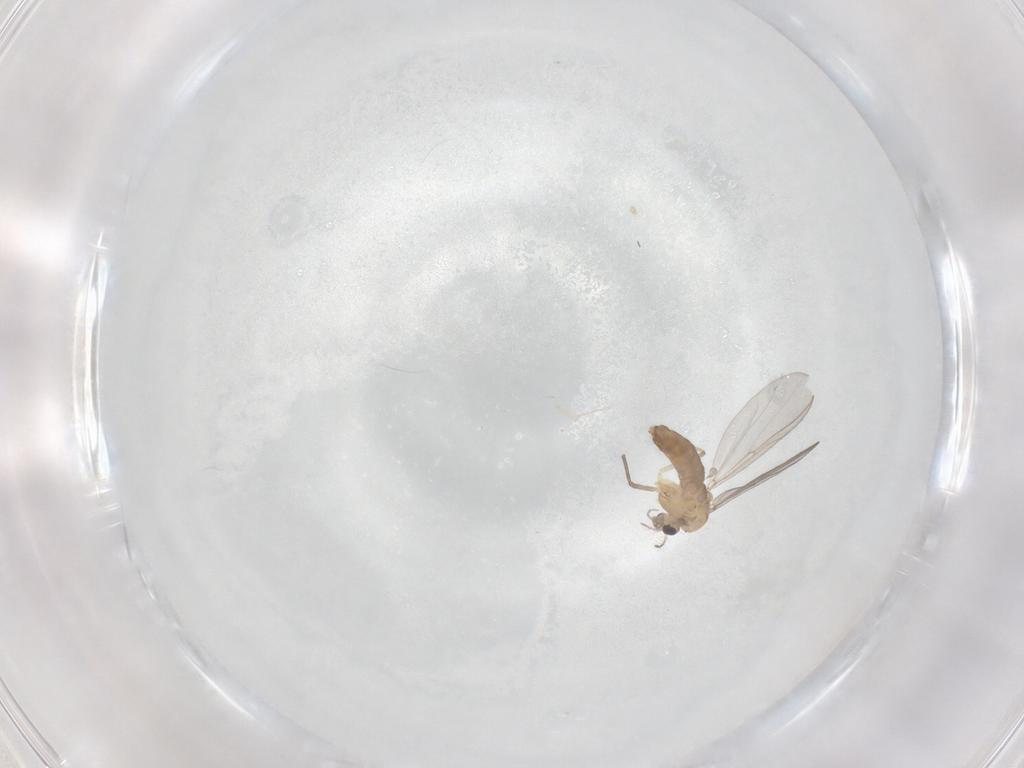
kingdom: Animalia
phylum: Arthropoda
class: Insecta
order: Diptera
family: Chironomidae
